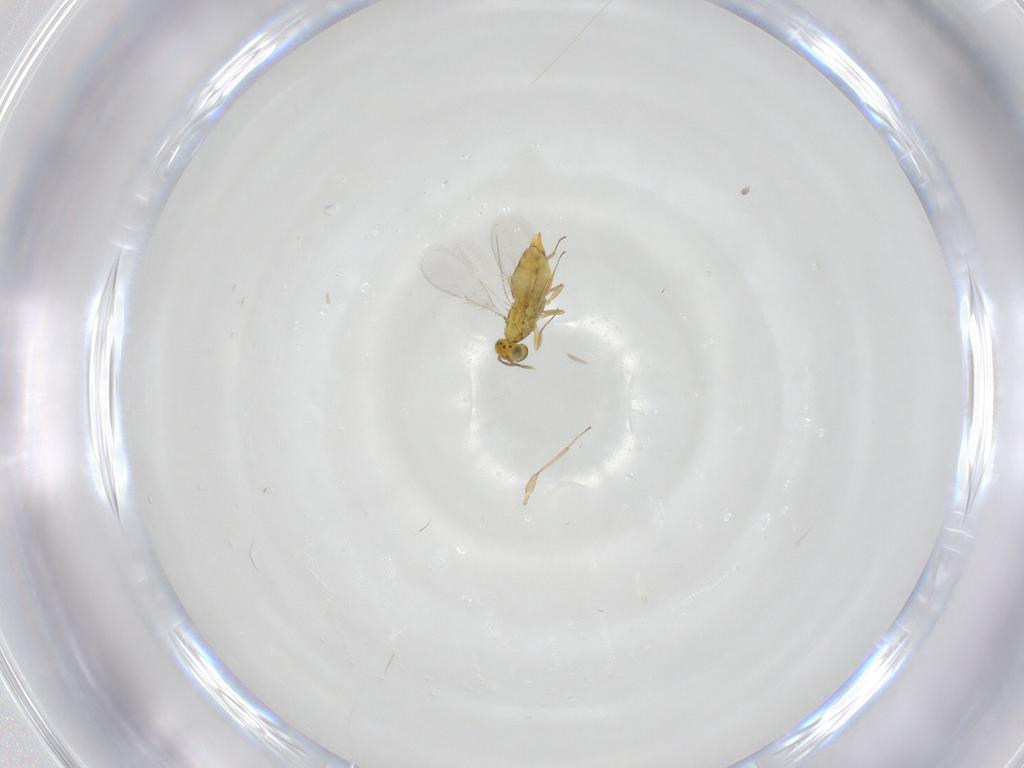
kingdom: Animalia
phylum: Arthropoda
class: Insecta
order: Hymenoptera
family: Aphelinidae
